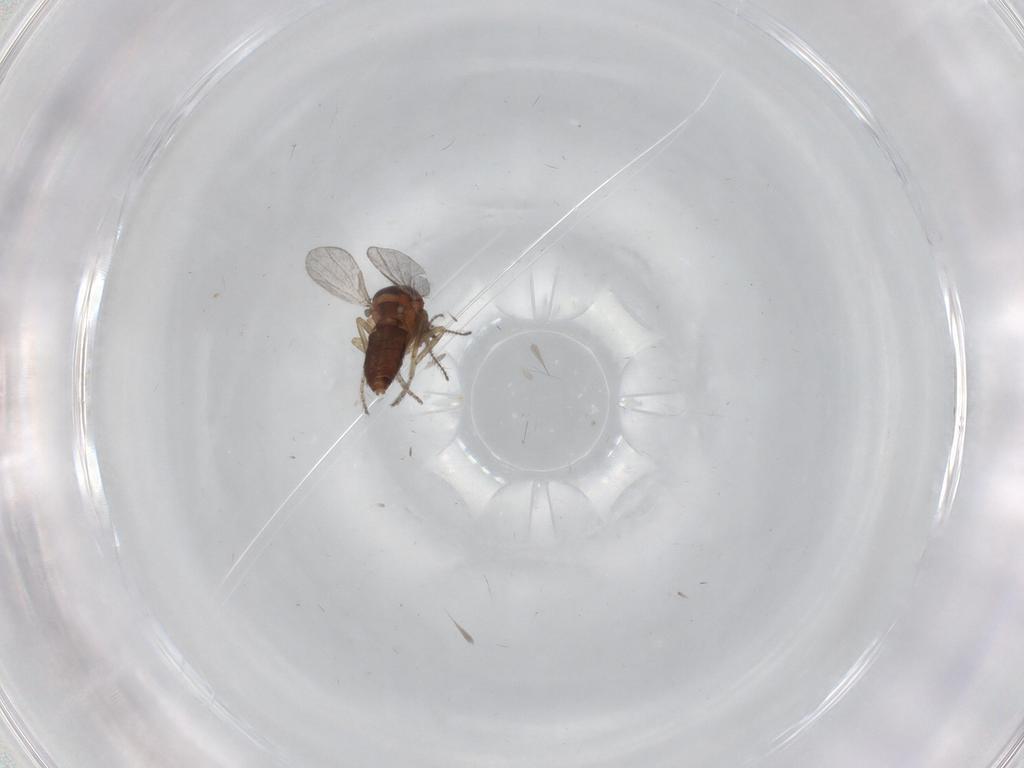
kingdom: Animalia
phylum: Arthropoda
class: Insecta
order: Diptera
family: Ceratopogonidae
